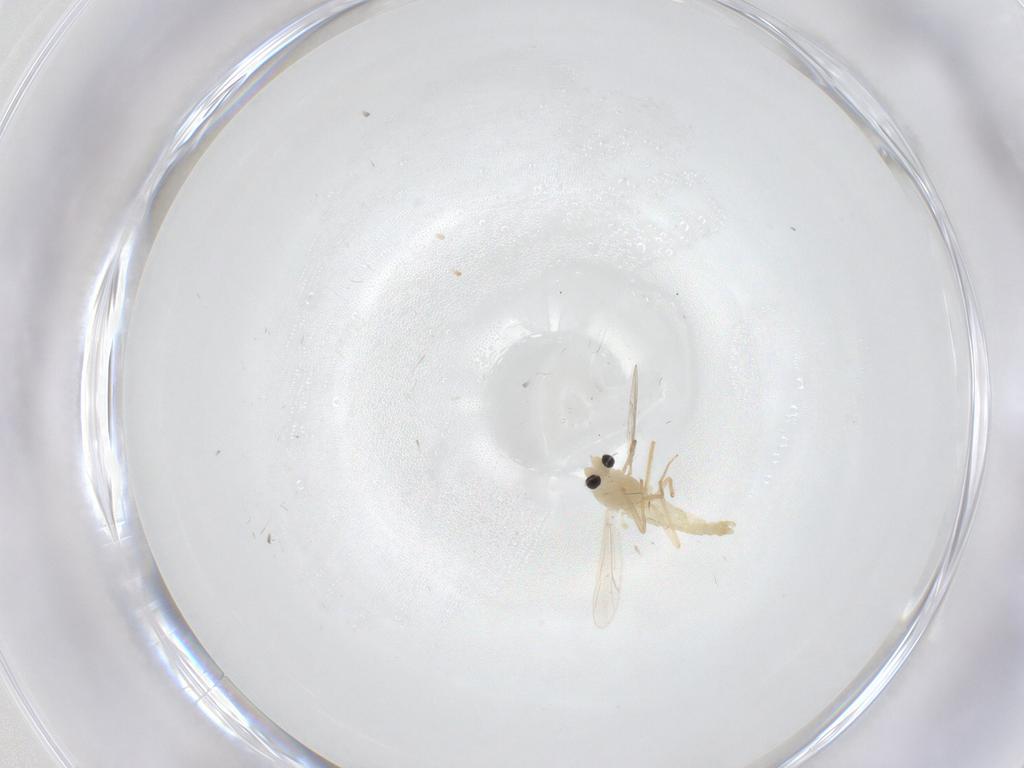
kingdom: Animalia
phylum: Arthropoda
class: Insecta
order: Diptera
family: Chironomidae
